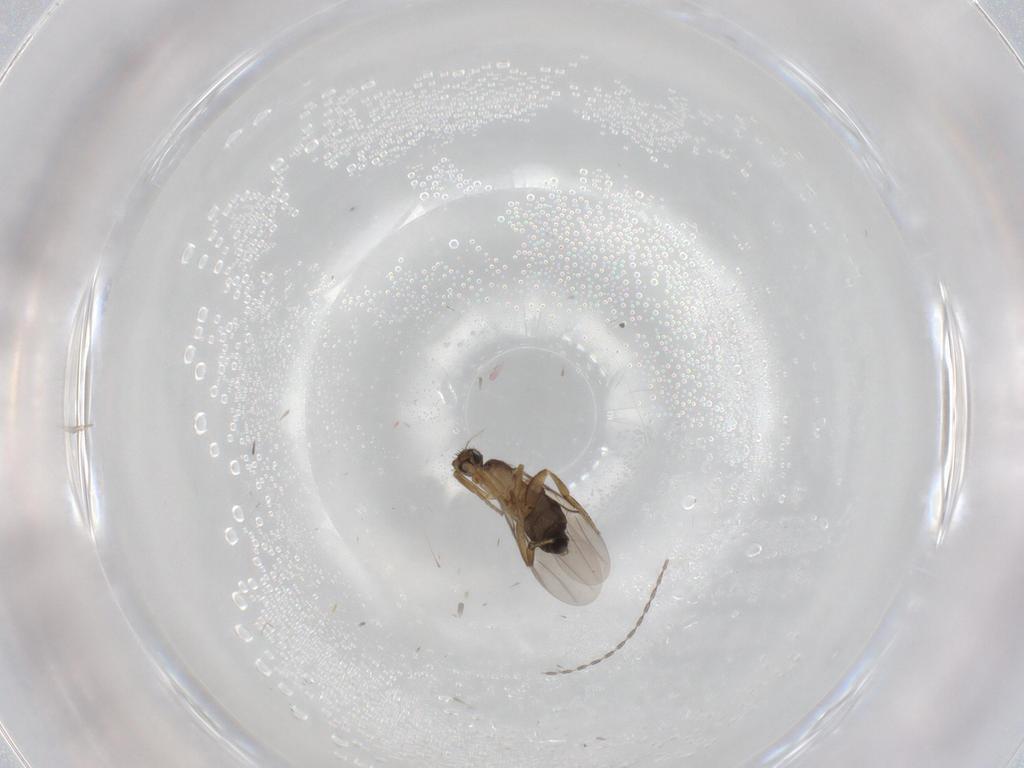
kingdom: Animalia
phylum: Arthropoda
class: Insecta
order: Diptera
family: Phoridae
